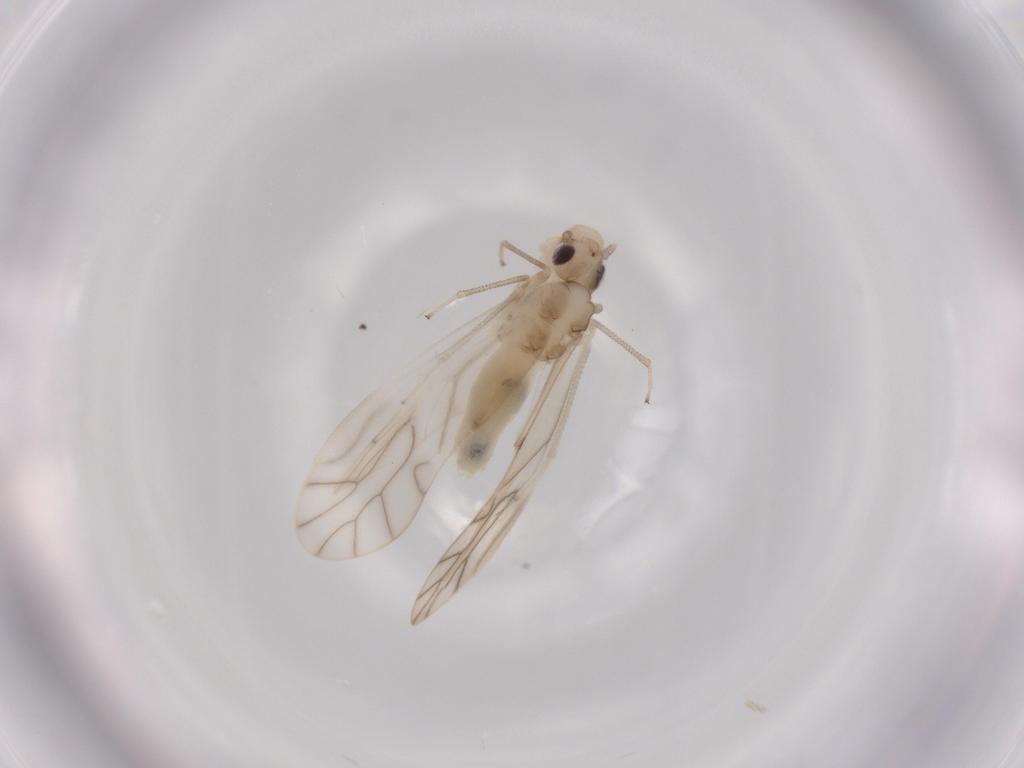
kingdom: Animalia
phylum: Arthropoda
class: Insecta
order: Psocodea
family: Caeciliusidae
